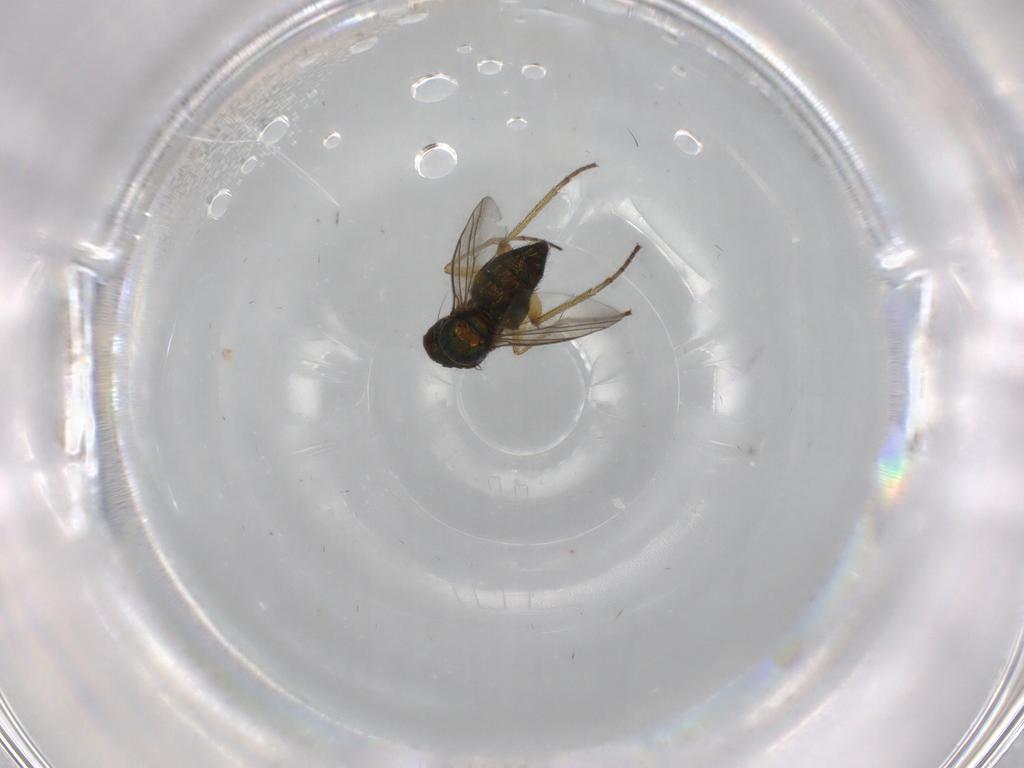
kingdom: Animalia
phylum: Arthropoda
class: Insecta
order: Diptera
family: Dolichopodidae
